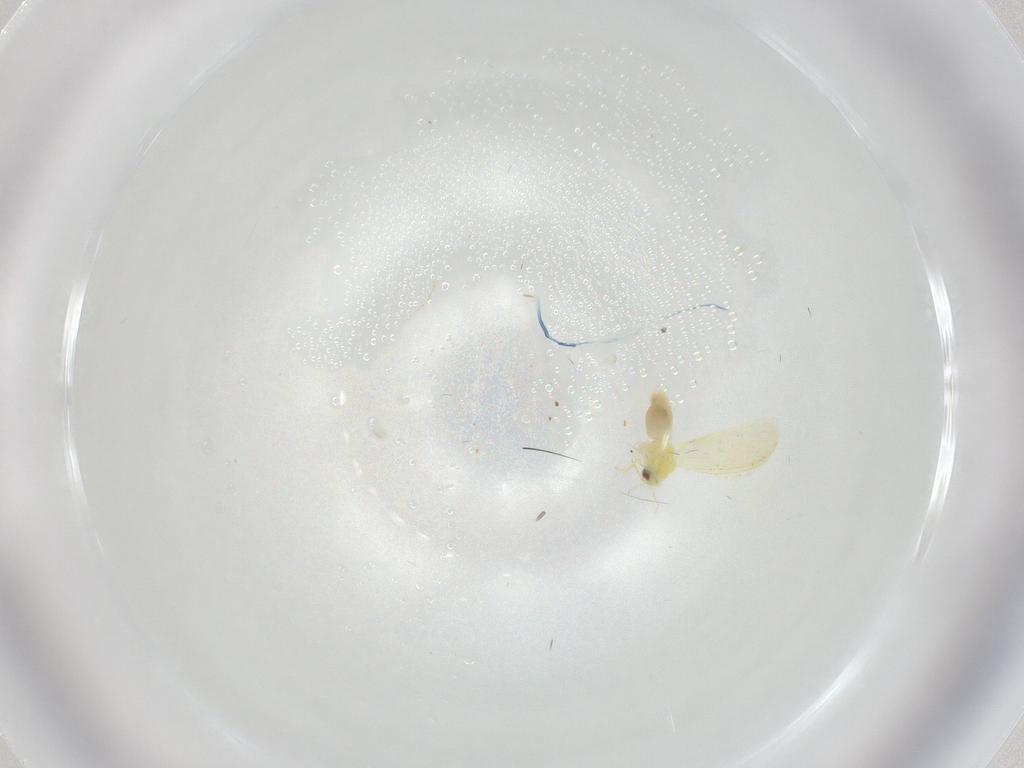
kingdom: Animalia
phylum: Arthropoda
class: Insecta
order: Hemiptera
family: Aleyrodidae
